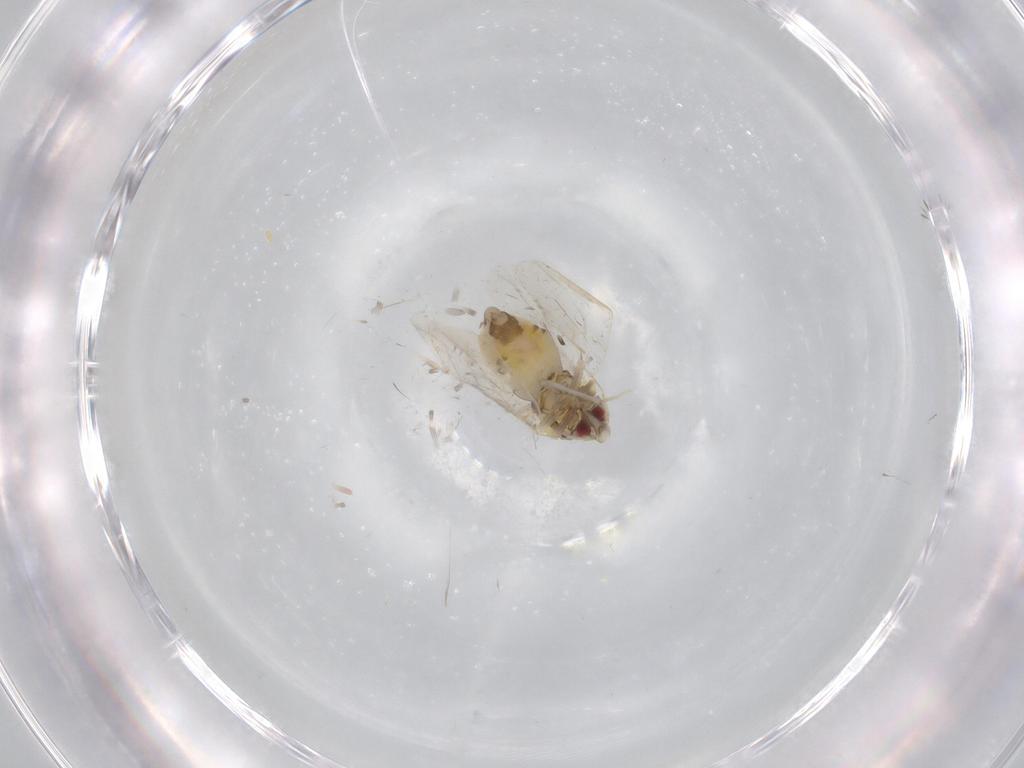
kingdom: Animalia
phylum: Arthropoda
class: Insecta
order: Hemiptera
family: Aleyrodidae
